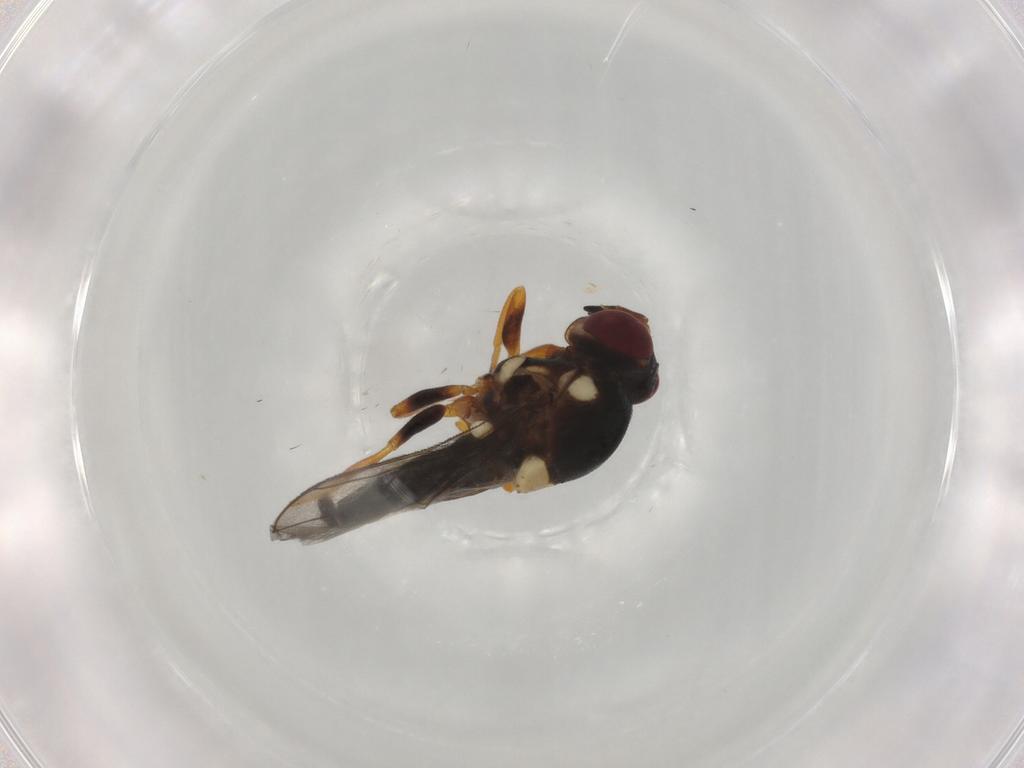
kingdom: Animalia
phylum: Arthropoda
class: Insecta
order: Diptera
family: Chloropidae
